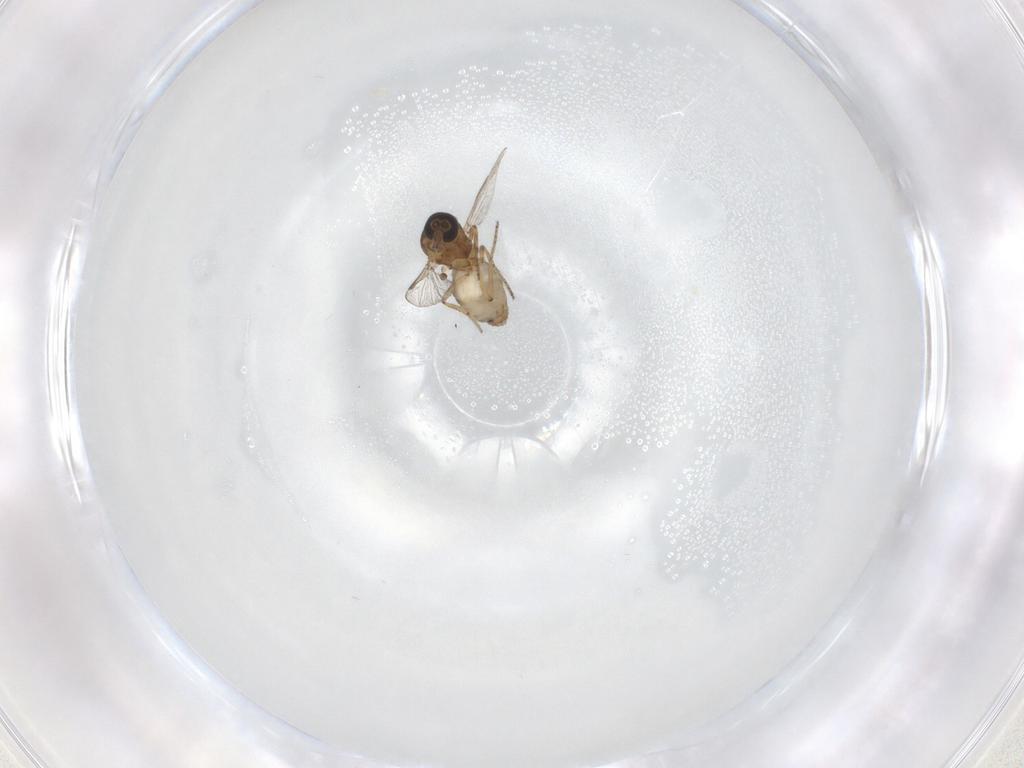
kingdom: Animalia
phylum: Arthropoda
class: Insecta
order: Diptera
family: Ceratopogonidae
